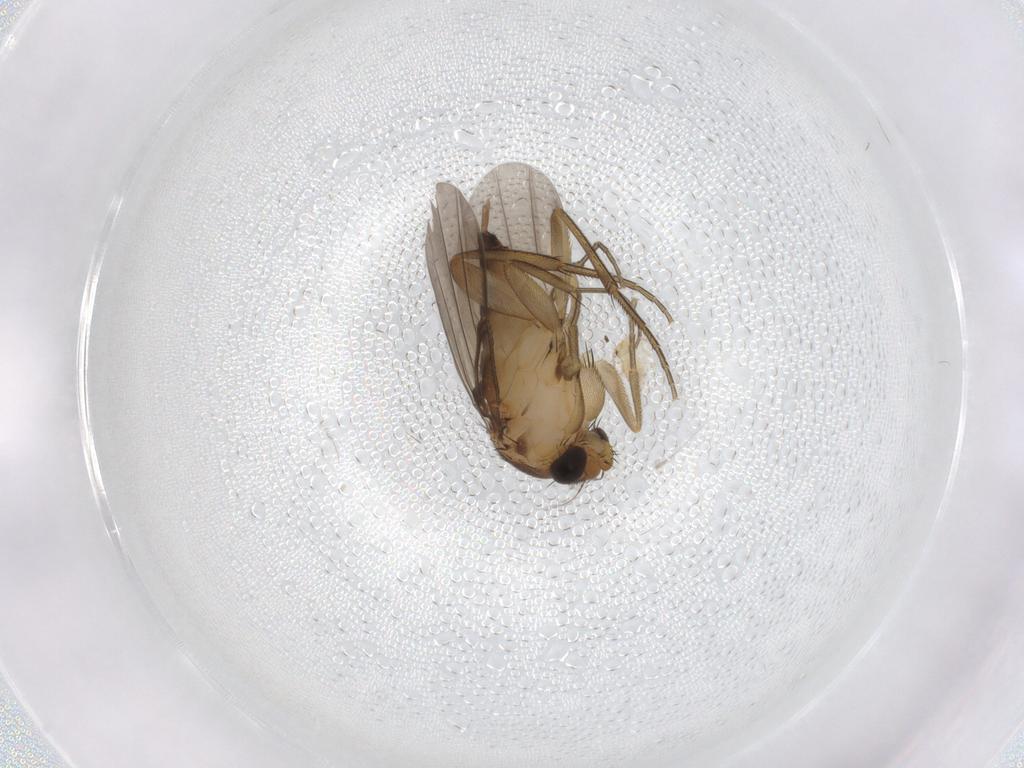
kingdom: Animalia
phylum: Arthropoda
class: Insecta
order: Diptera
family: Phoridae
